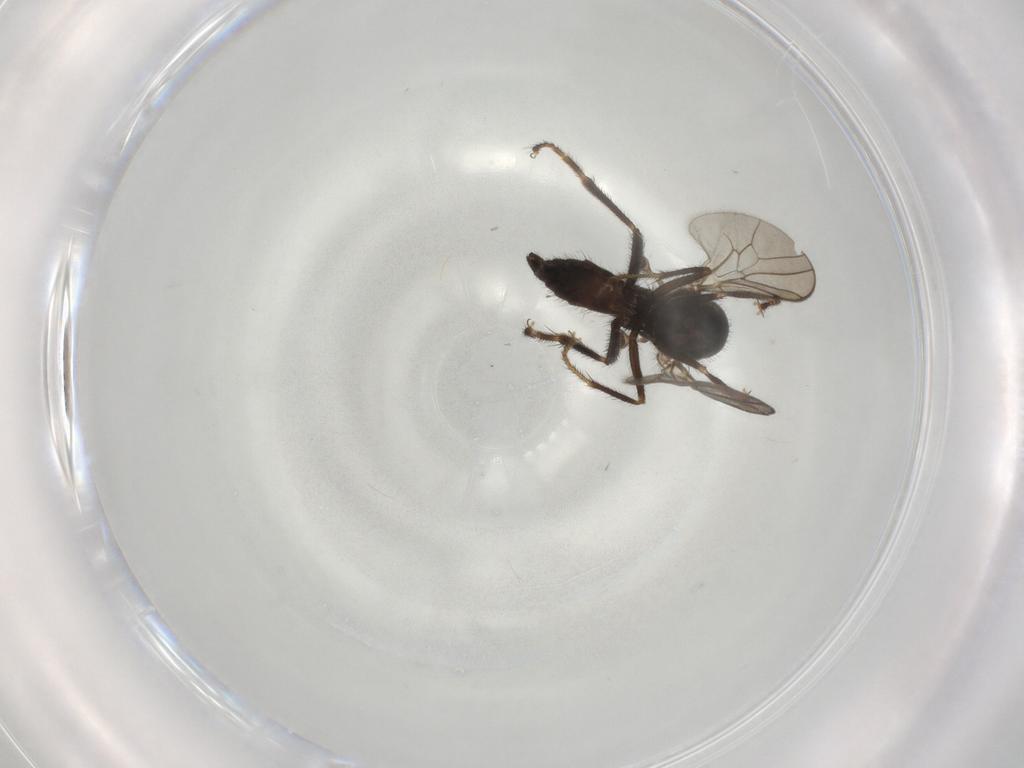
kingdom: Animalia
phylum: Arthropoda
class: Insecta
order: Diptera
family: Hybotidae
